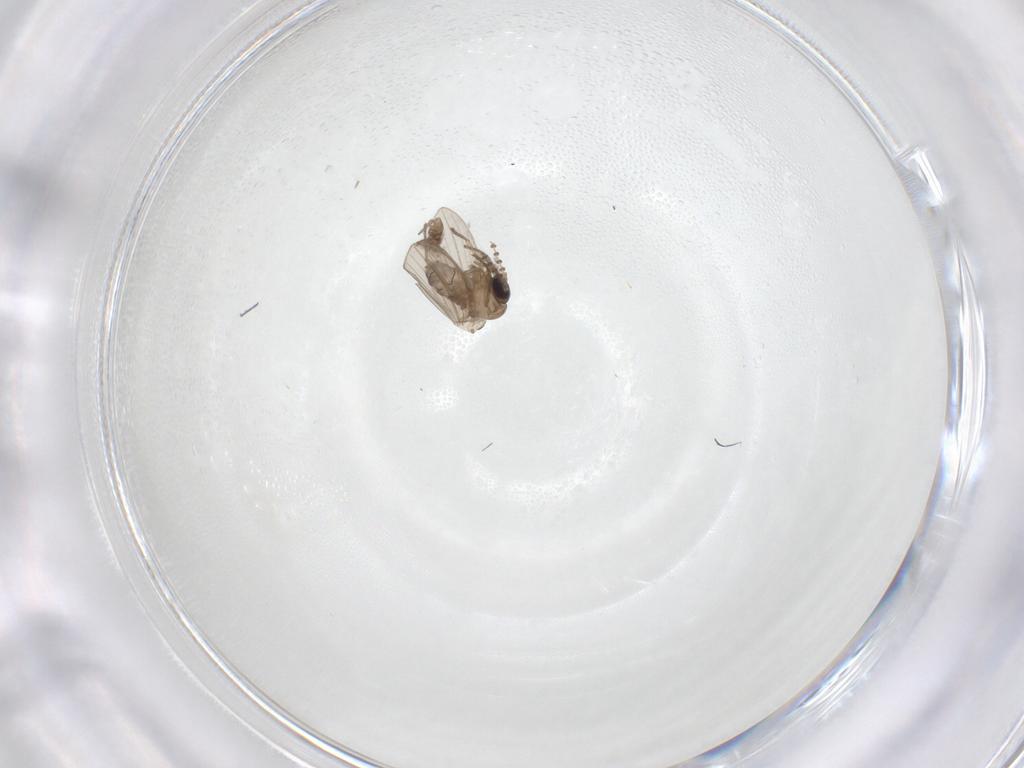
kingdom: Animalia
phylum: Arthropoda
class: Insecta
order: Diptera
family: Psychodidae
